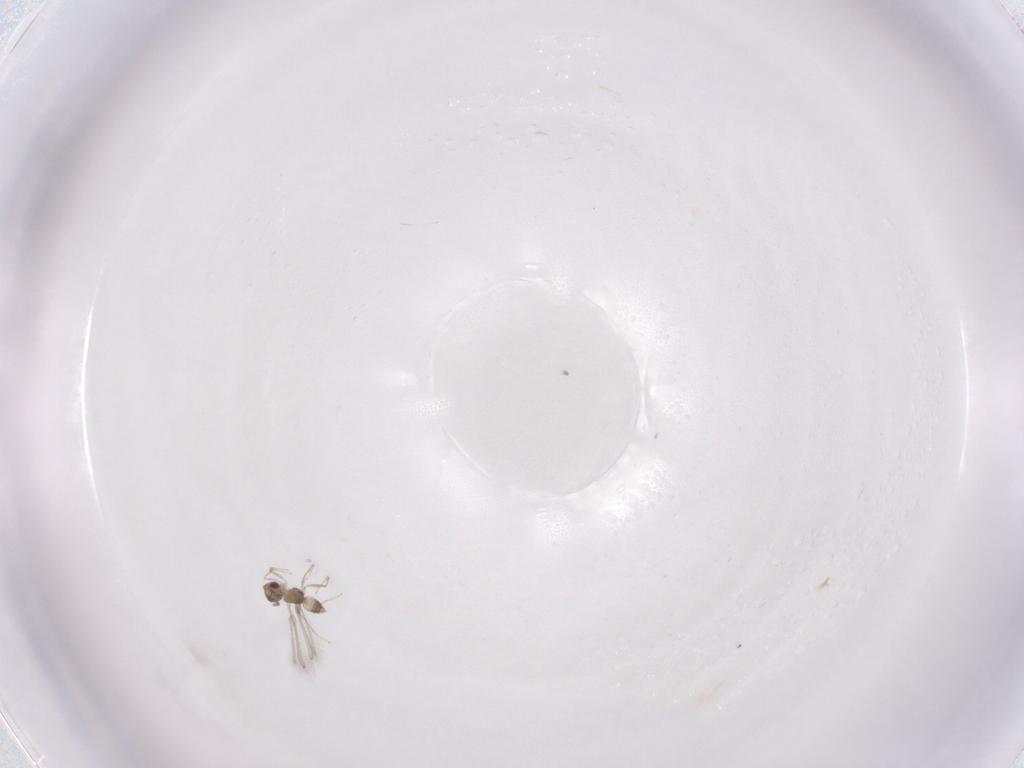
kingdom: Animalia
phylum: Arthropoda
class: Insecta
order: Hymenoptera
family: Mymaridae
